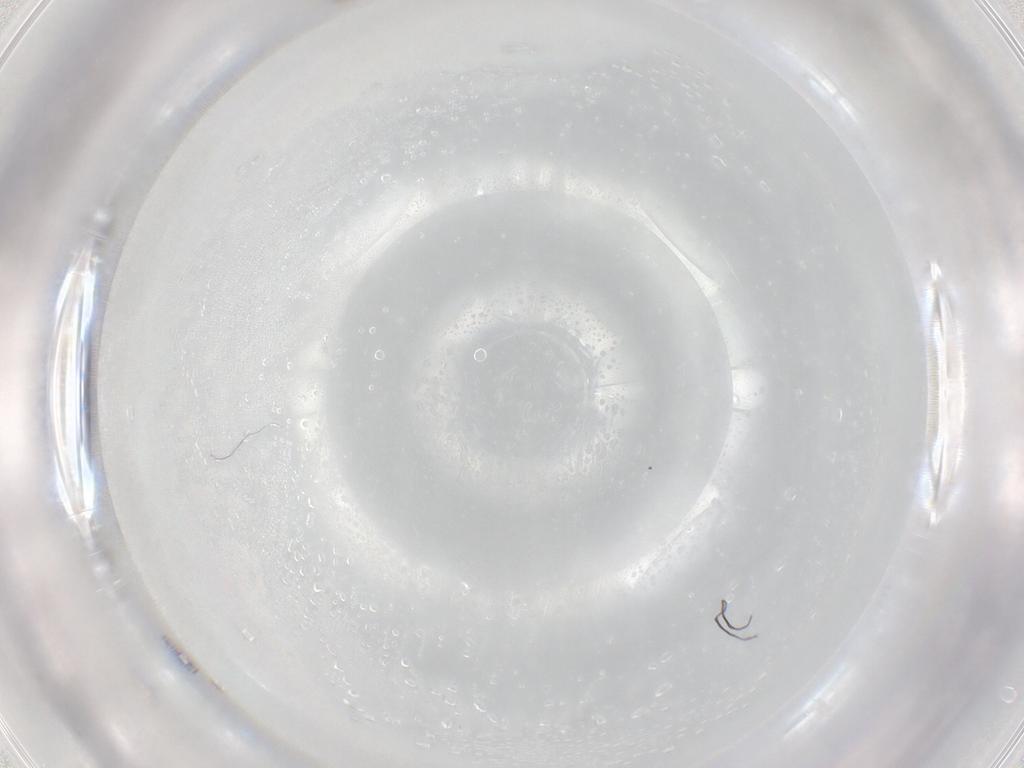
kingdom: Animalia
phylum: Arthropoda
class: Insecta
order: Diptera
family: Cecidomyiidae
